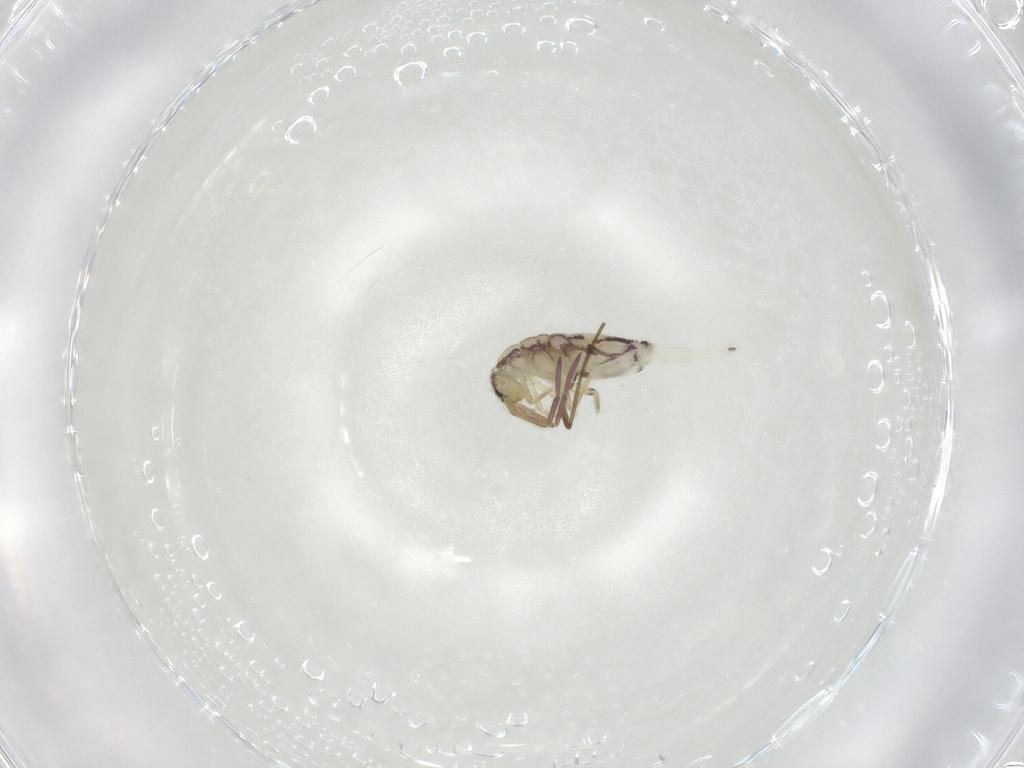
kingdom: Animalia
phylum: Arthropoda
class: Collembola
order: Entomobryomorpha
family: Entomobryidae
